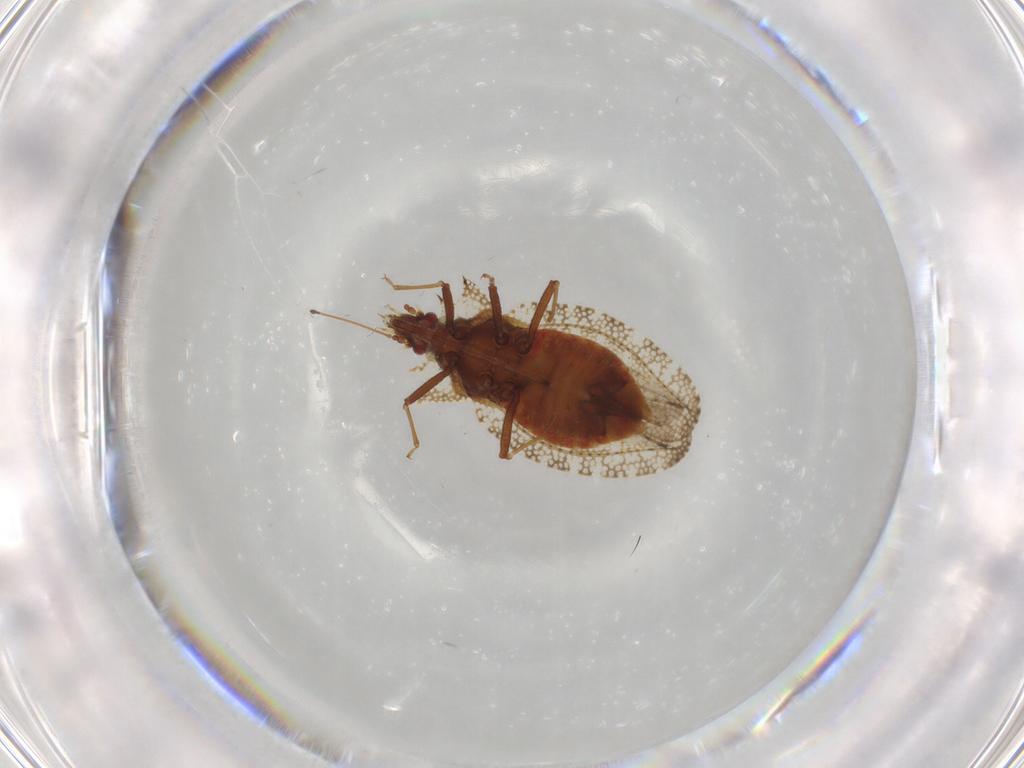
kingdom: Animalia
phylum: Arthropoda
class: Insecta
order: Hemiptera
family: Tingidae
